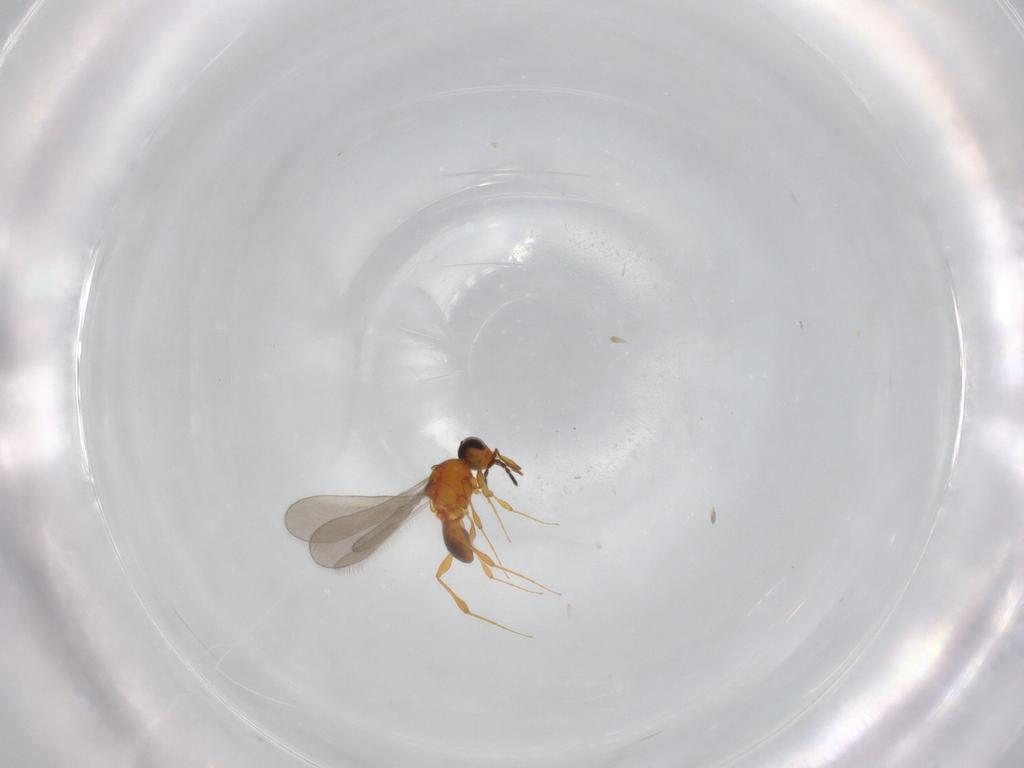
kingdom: Animalia
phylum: Arthropoda
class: Insecta
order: Hymenoptera
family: Platygastridae
